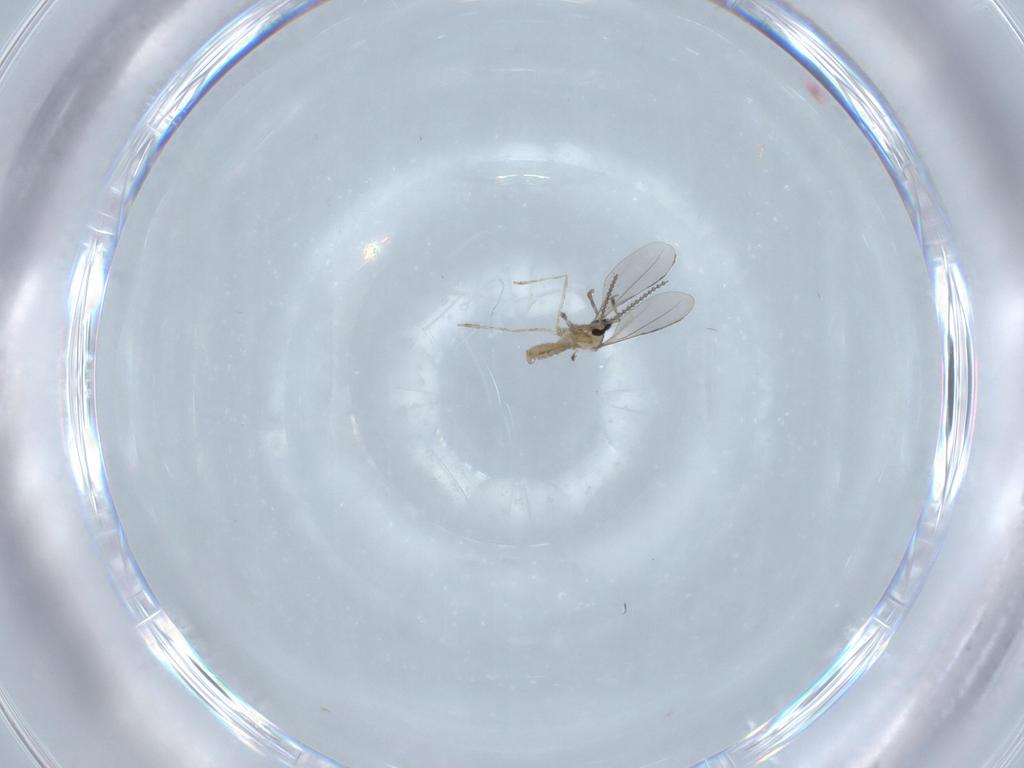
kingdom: Animalia
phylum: Arthropoda
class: Insecta
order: Diptera
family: Cecidomyiidae
